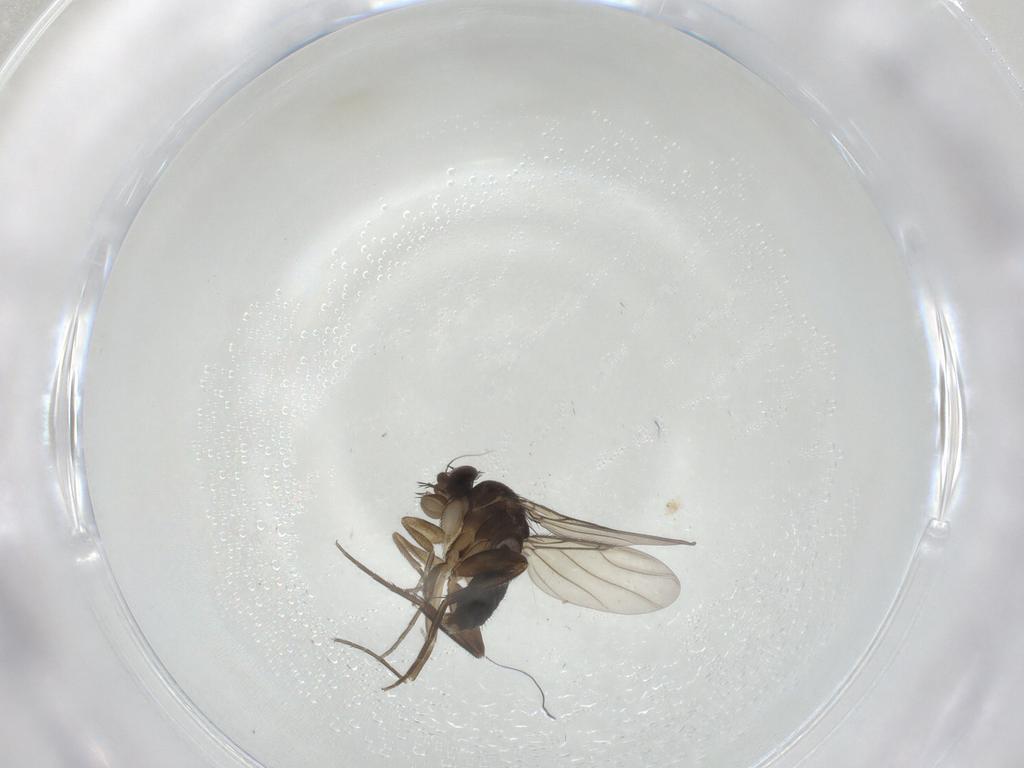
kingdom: Animalia
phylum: Arthropoda
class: Insecta
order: Diptera
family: Phoridae
